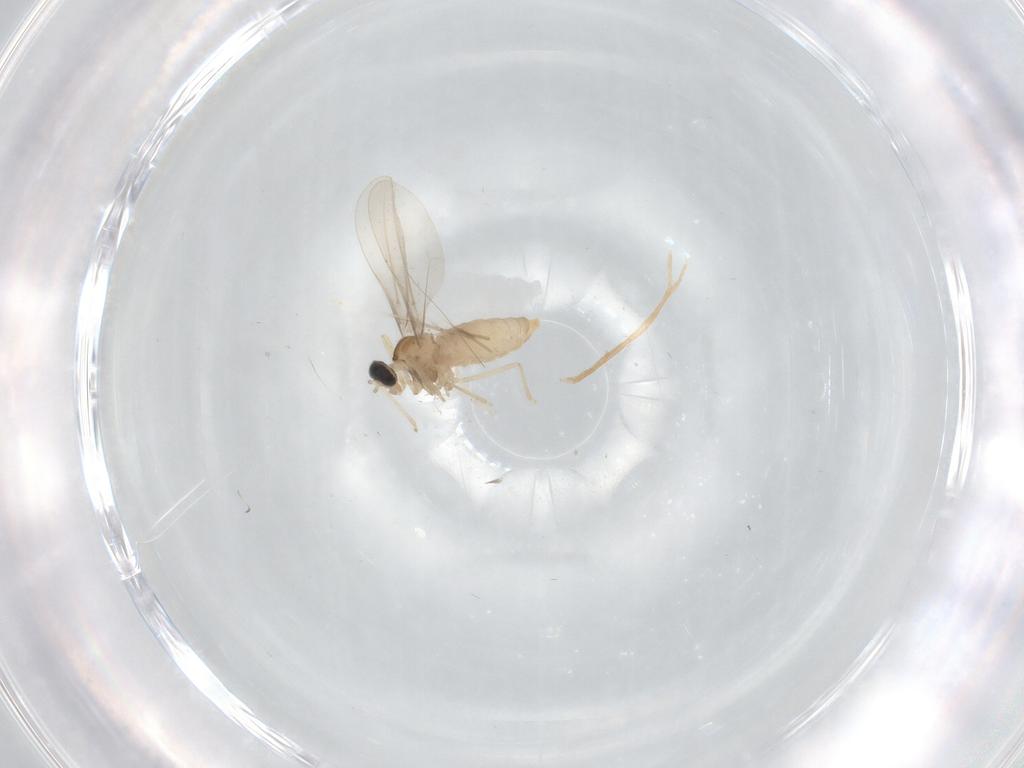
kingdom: Animalia
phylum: Arthropoda
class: Insecta
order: Diptera
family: Cecidomyiidae
